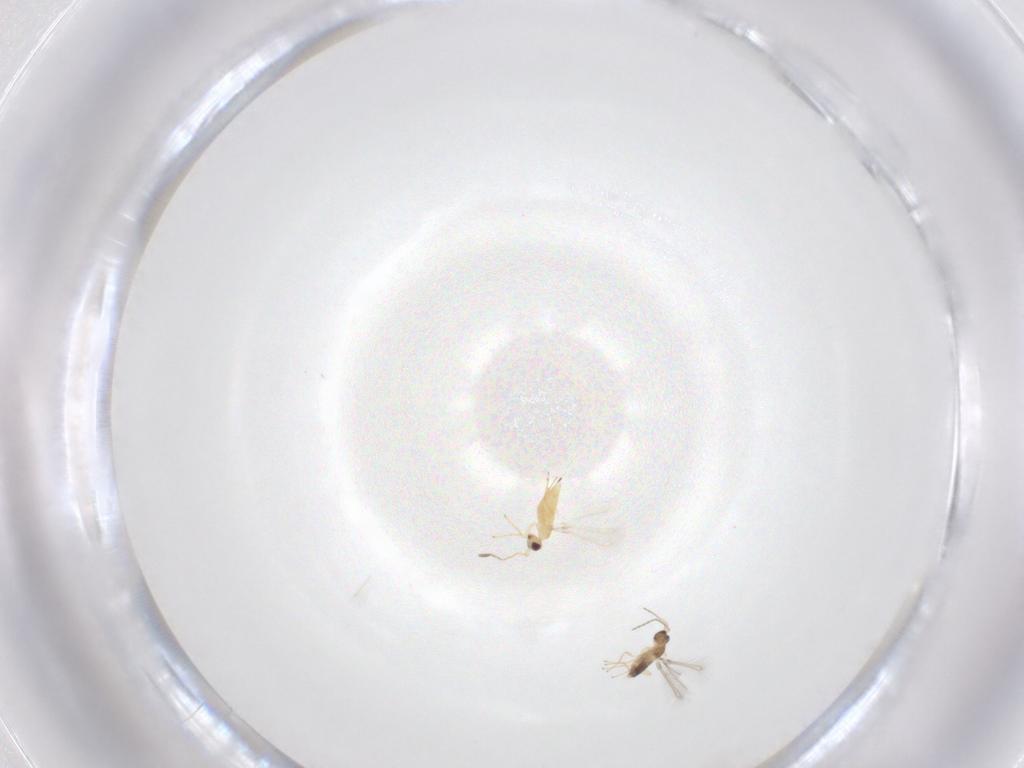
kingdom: Animalia
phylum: Arthropoda
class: Insecta
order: Hymenoptera
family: Mymaridae
